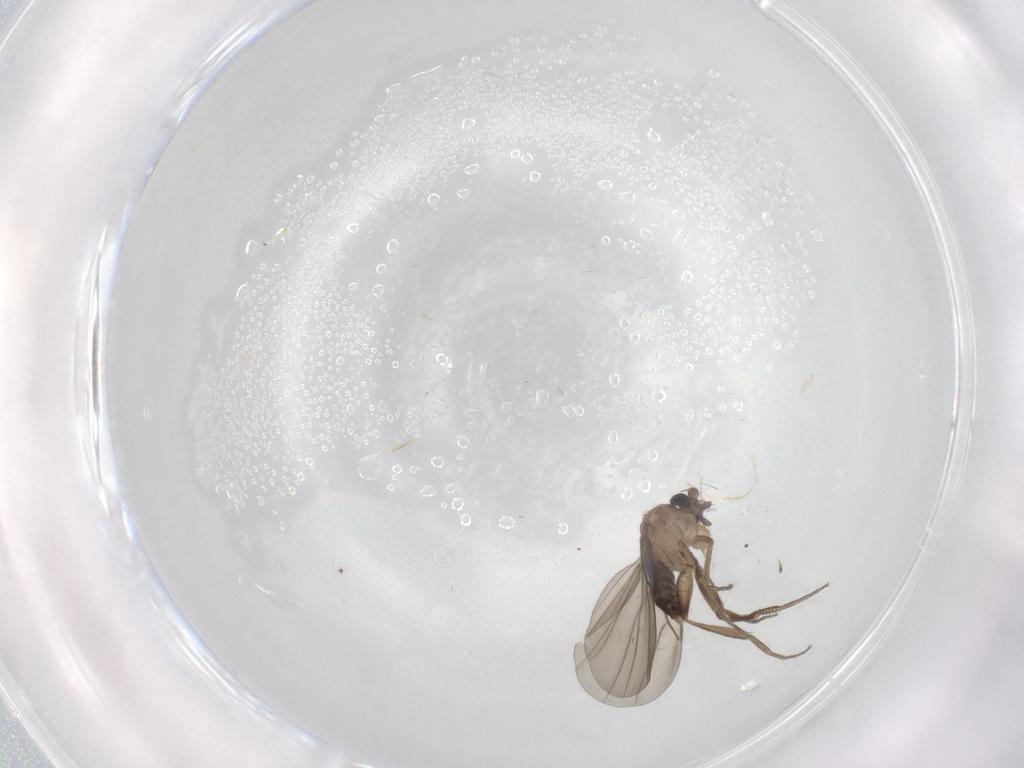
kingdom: Animalia
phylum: Arthropoda
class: Insecta
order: Diptera
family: Phoridae
